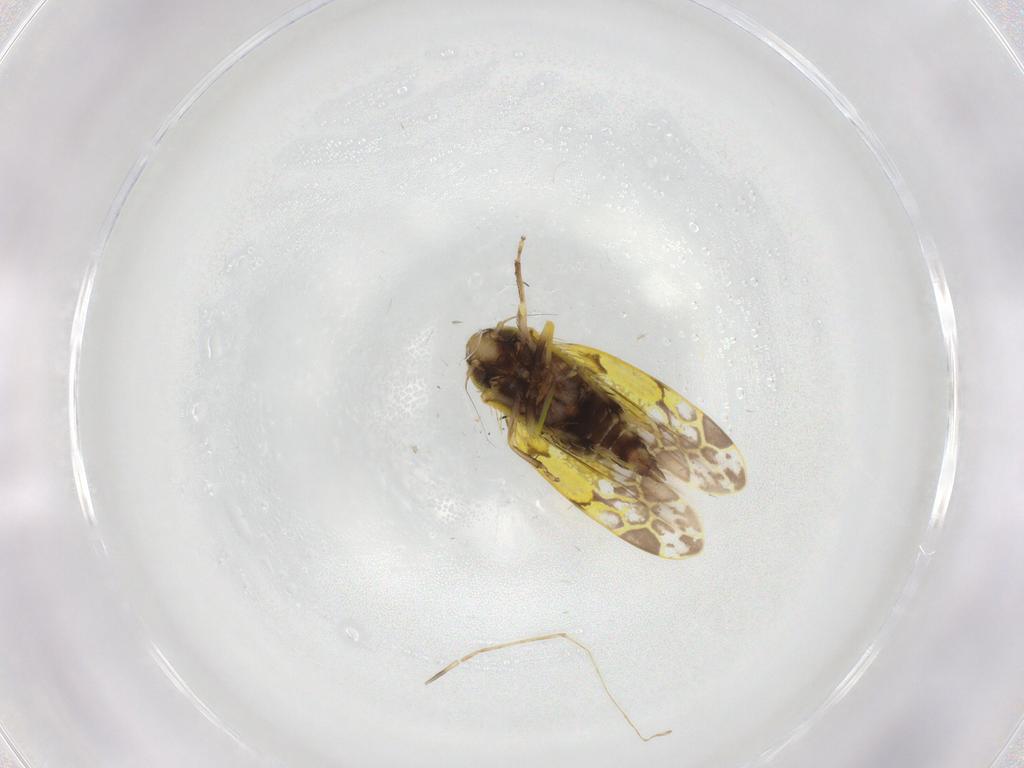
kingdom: Animalia
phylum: Arthropoda
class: Insecta
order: Hemiptera
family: Cicadellidae
